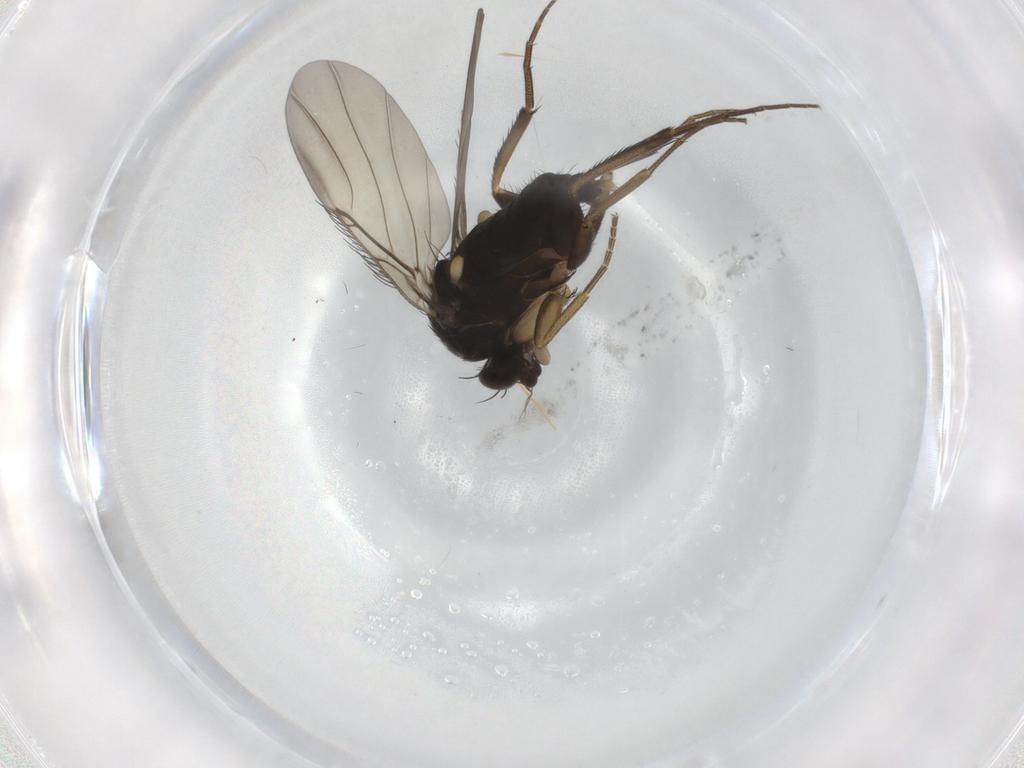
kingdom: Animalia
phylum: Arthropoda
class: Insecta
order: Diptera
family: Phoridae
